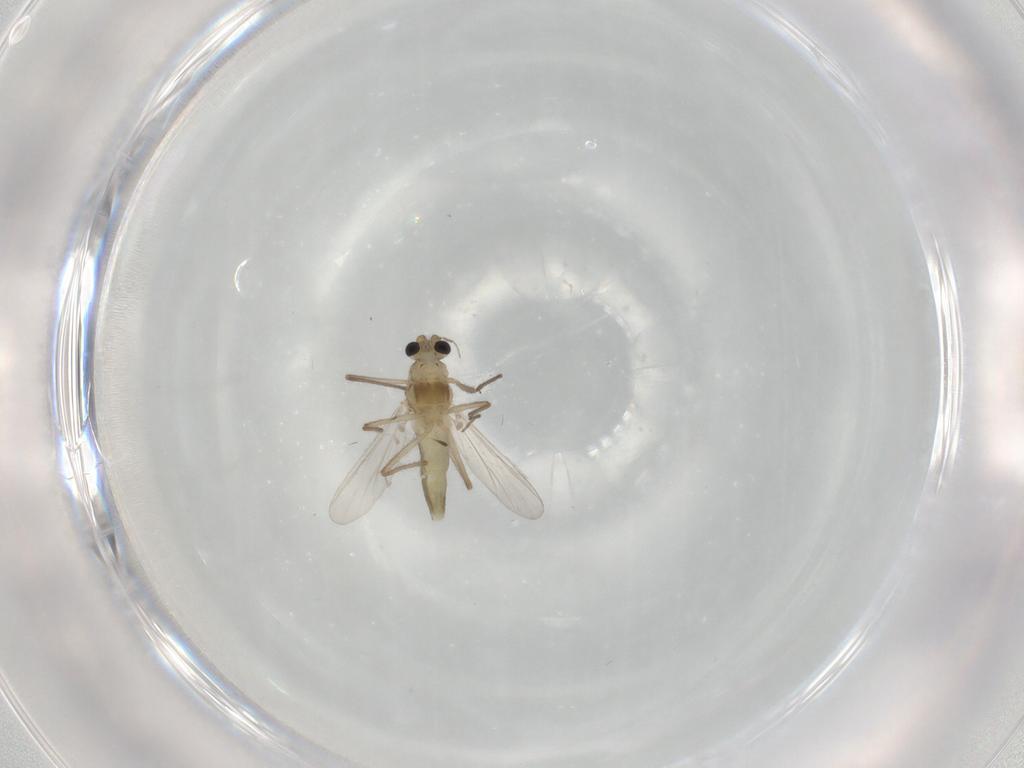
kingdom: Animalia
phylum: Arthropoda
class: Insecta
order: Diptera
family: Chironomidae
